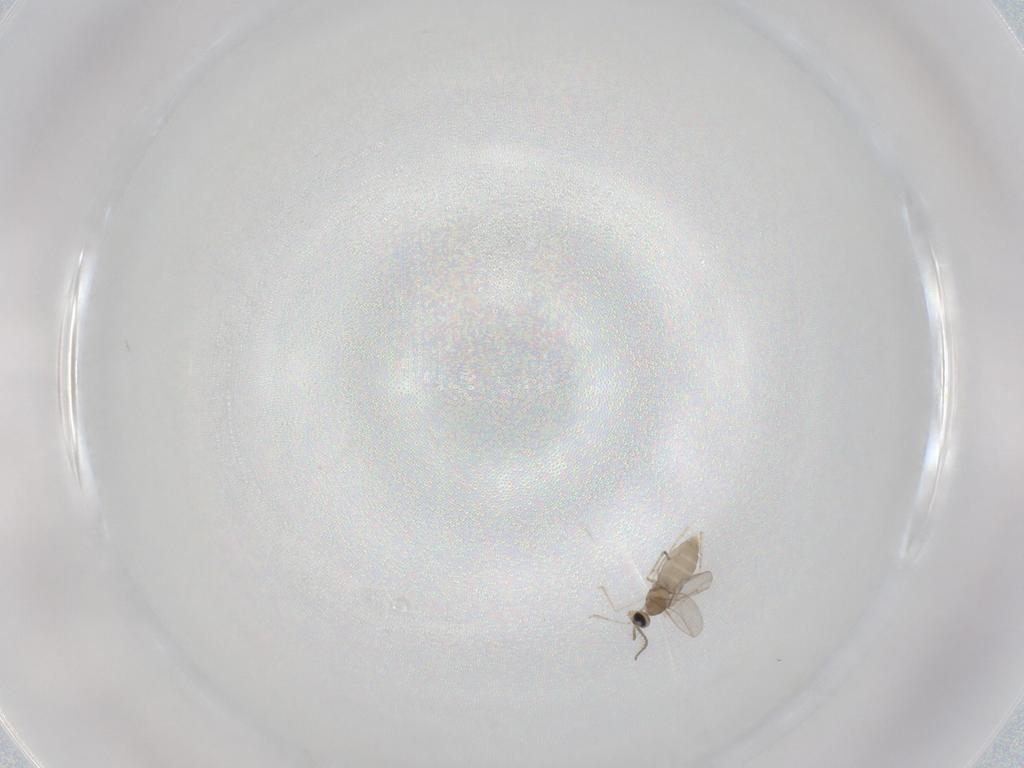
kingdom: Animalia
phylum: Arthropoda
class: Insecta
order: Diptera
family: Cecidomyiidae
